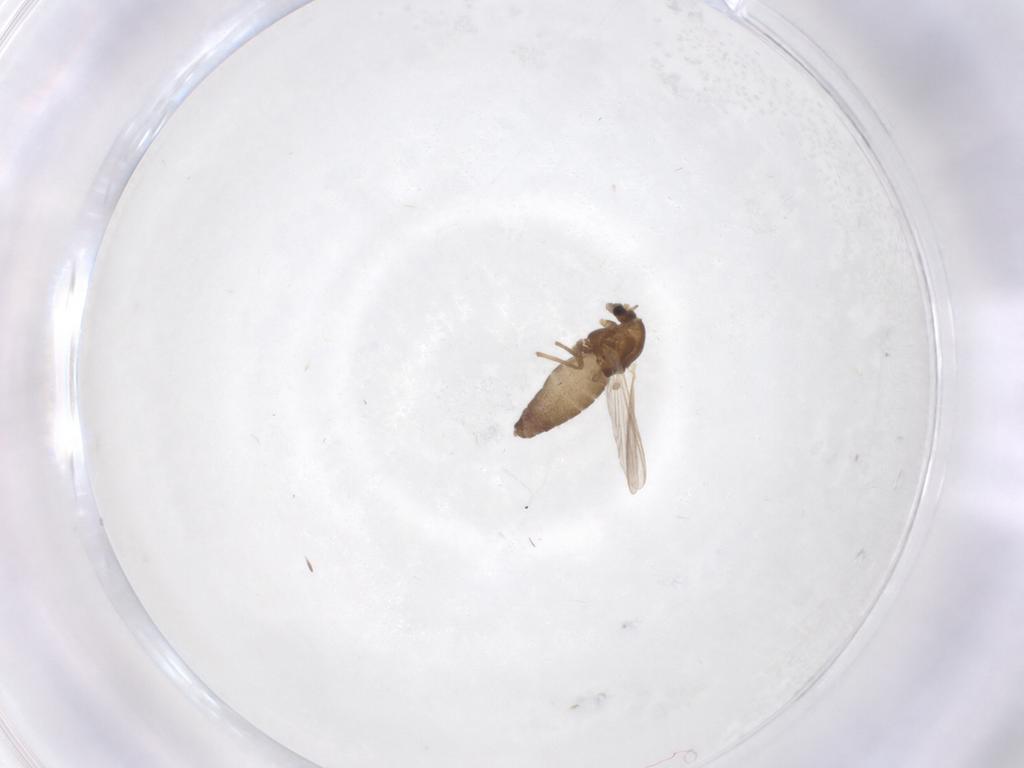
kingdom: Animalia
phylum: Arthropoda
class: Insecta
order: Diptera
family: Chironomidae
